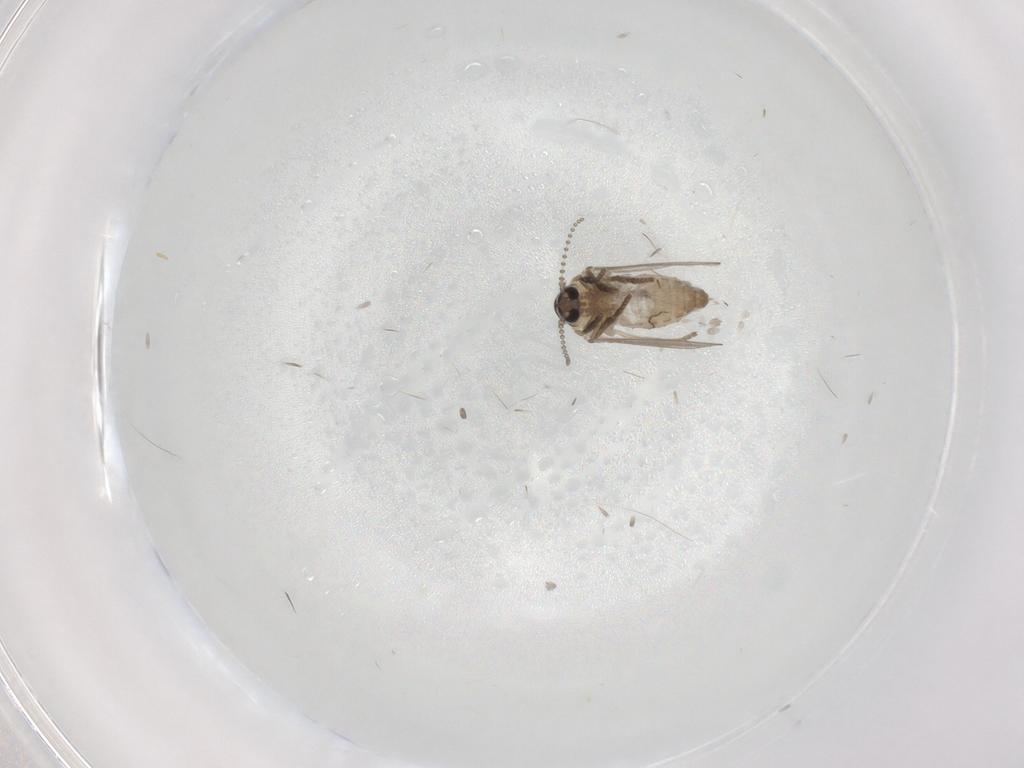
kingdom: Animalia
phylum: Arthropoda
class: Insecta
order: Diptera
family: Psychodidae
